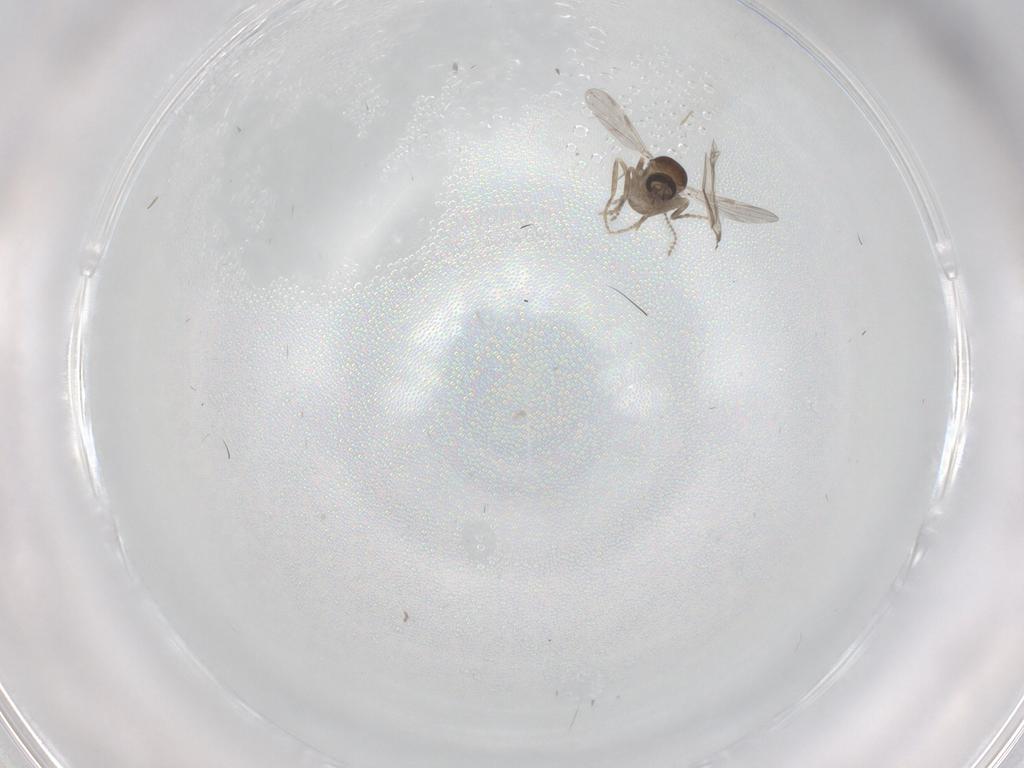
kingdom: Animalia
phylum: Arthropoda
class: Insecta
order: Diptera
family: Ceratopogonidae
